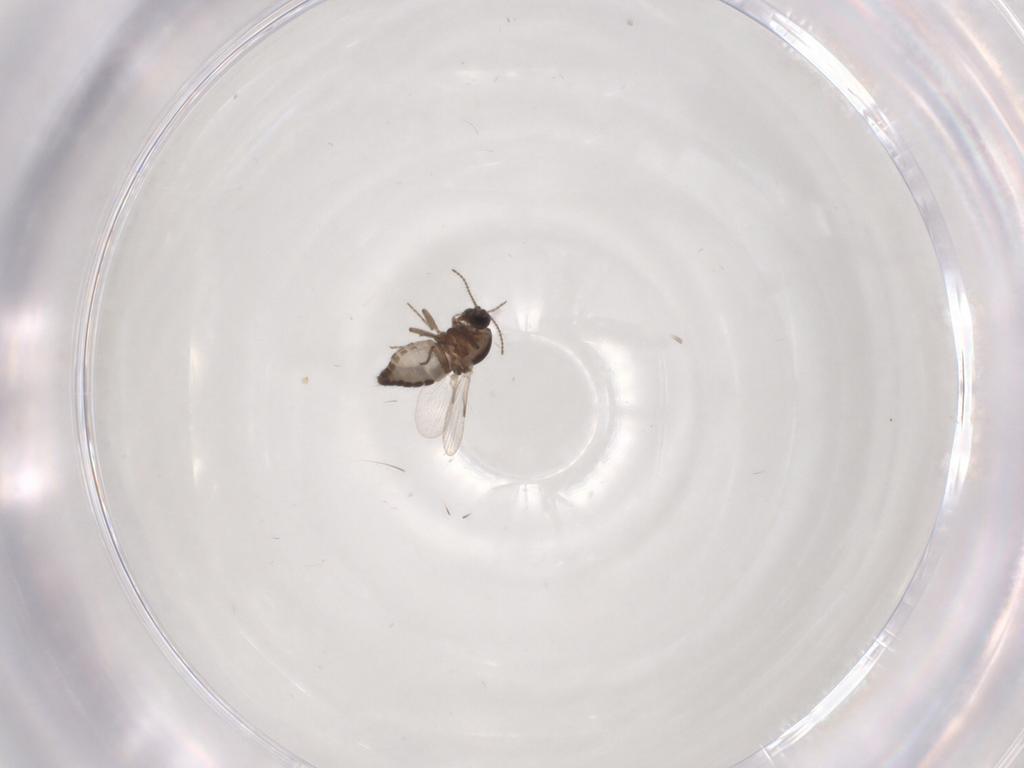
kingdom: Animalia
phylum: Arthropoda
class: Insecta
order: Diptera
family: Ceratopogonidae
